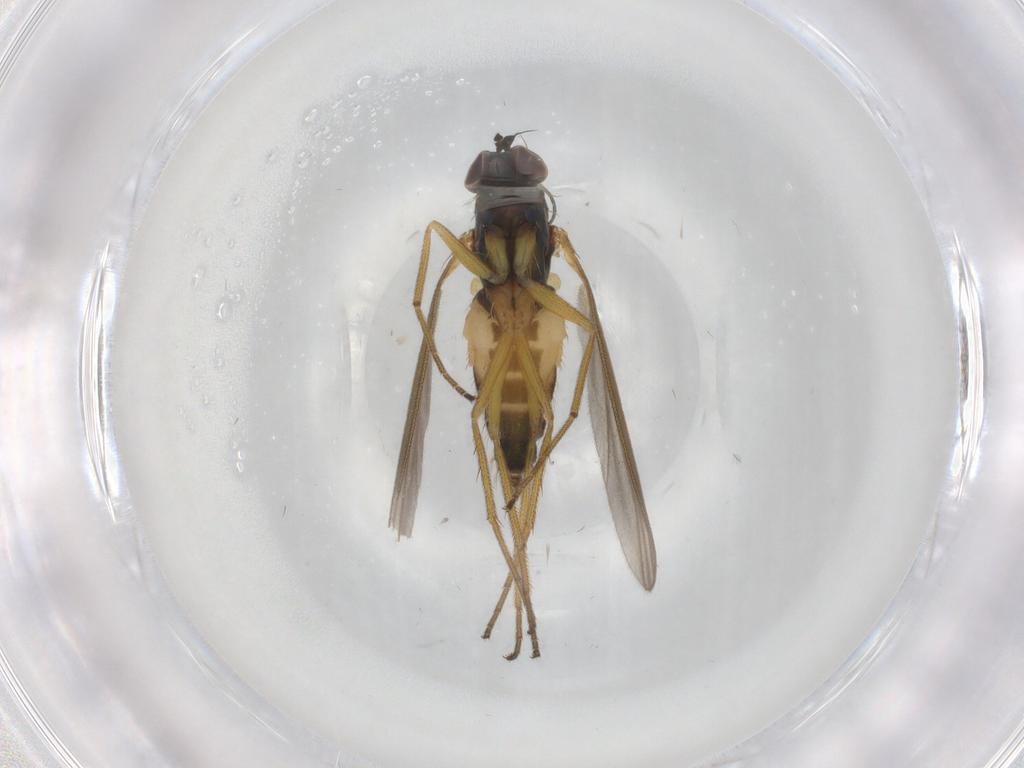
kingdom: Animalia
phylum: Arthropoda
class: Insecta
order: Diptera
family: Dolichopodidae
